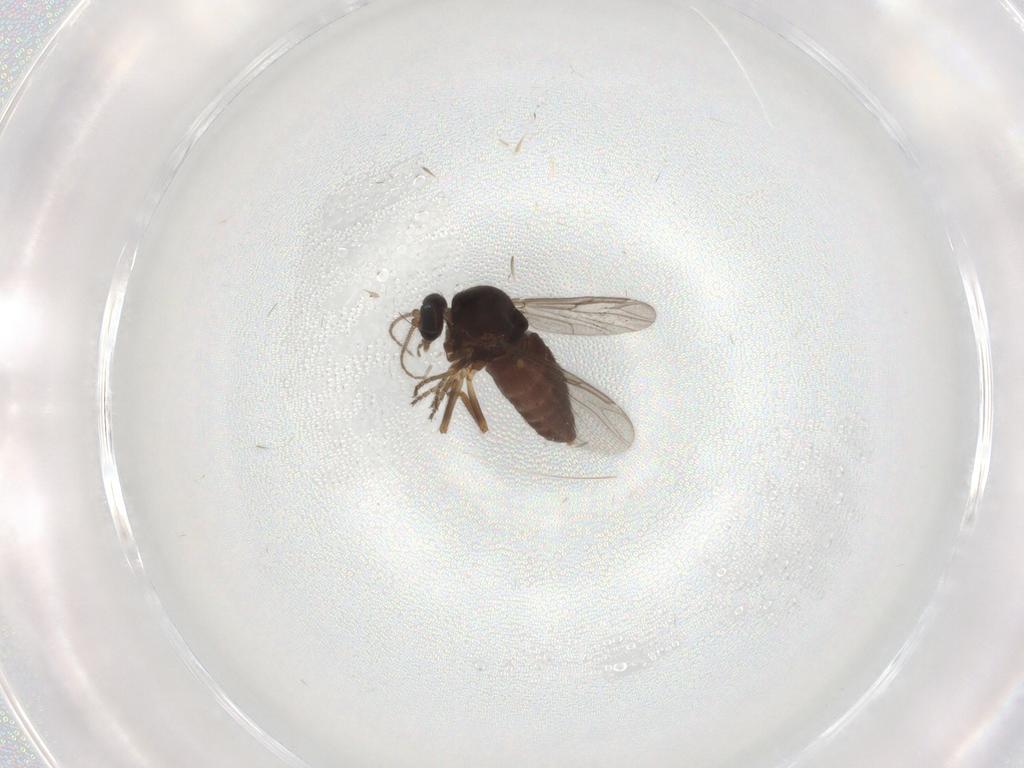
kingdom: Animalia
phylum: Arthropoda
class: Insecta
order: Diptera
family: Ceratopogonidae
